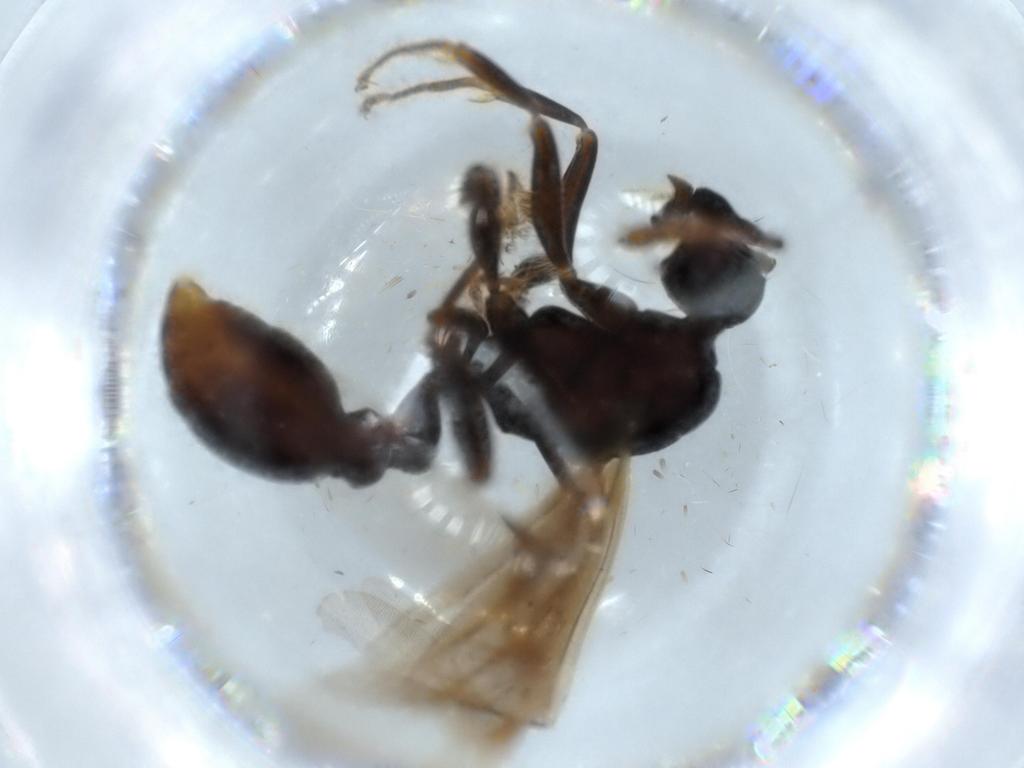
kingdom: Animalia
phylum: Arthropoda
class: Insecta
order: Hymenoptera
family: Formicidae
